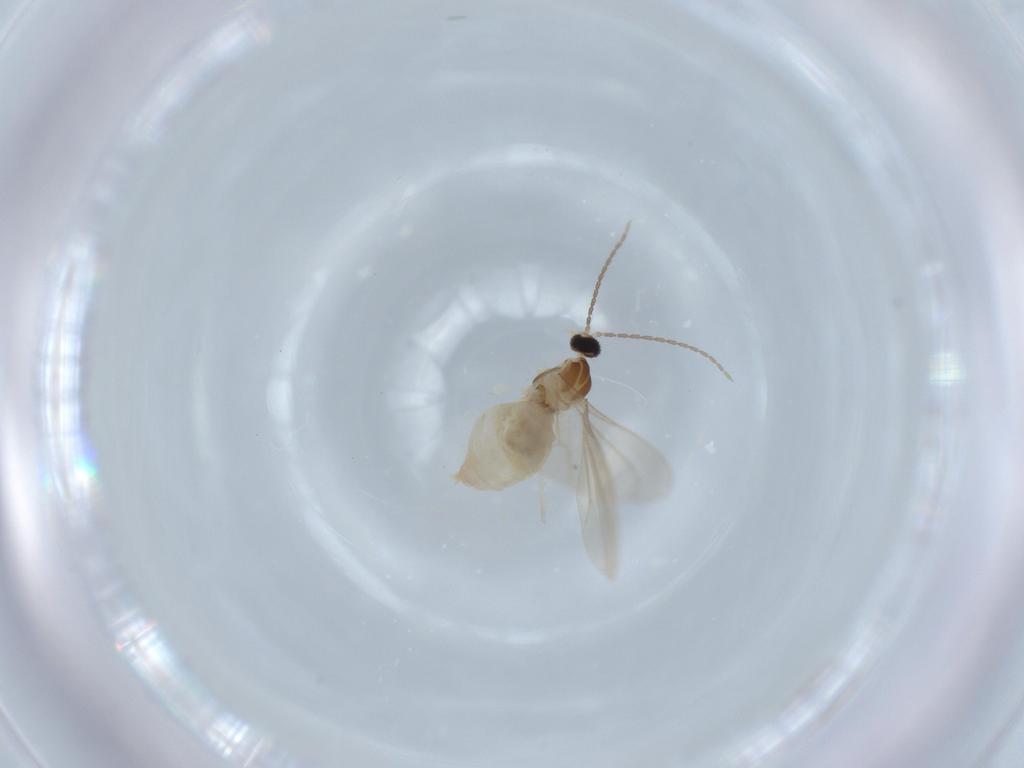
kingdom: Animalia
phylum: Arthropoda
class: Insecta
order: Diptera
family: Cecidomyiidae
